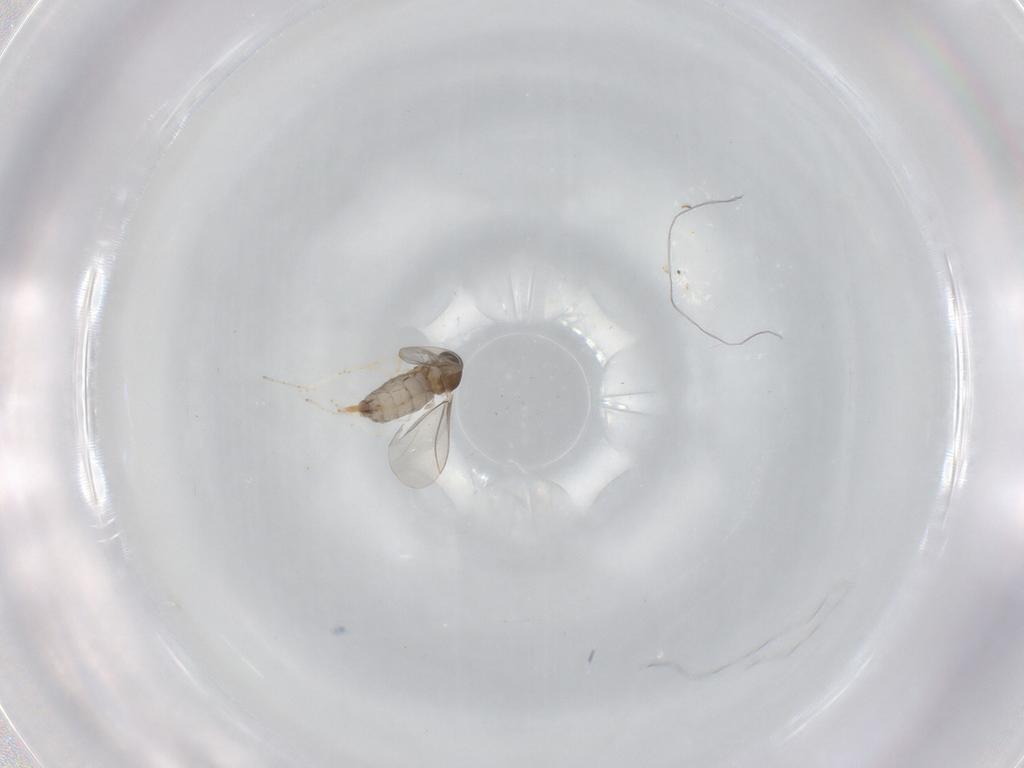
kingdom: Animalia
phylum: Arthropoda
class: Insecta
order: Diptera
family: Cecidomyiidae
